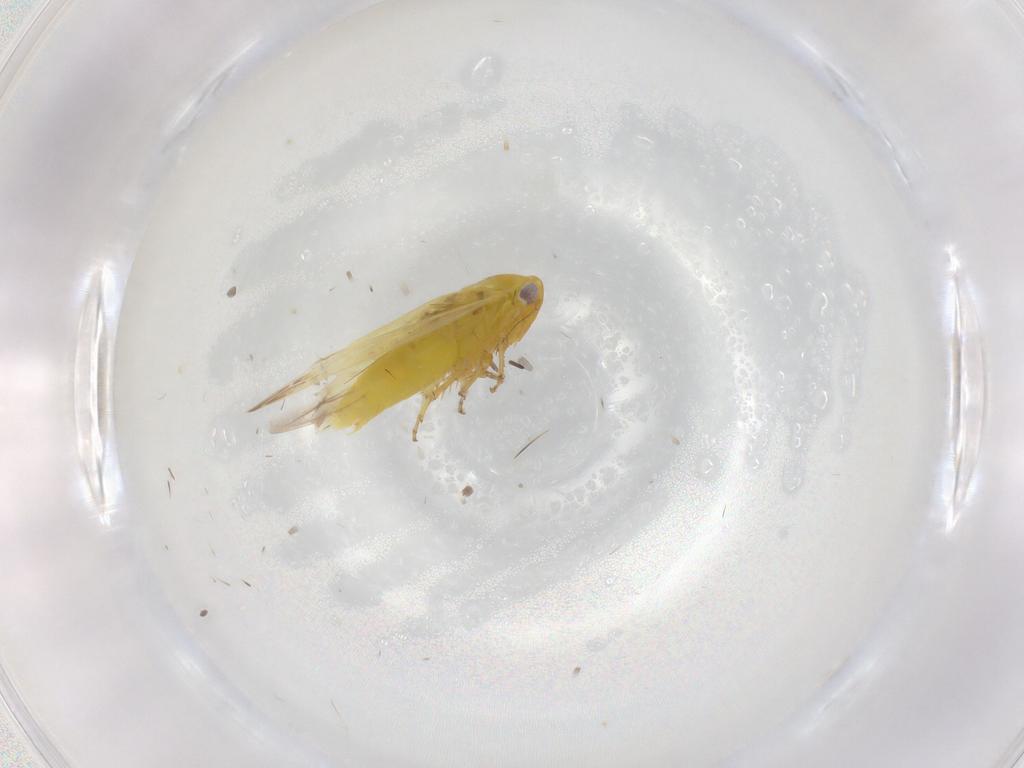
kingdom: Animalia
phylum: Arthropoda
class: Insecta
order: Hemiptera
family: Cicadellidae
